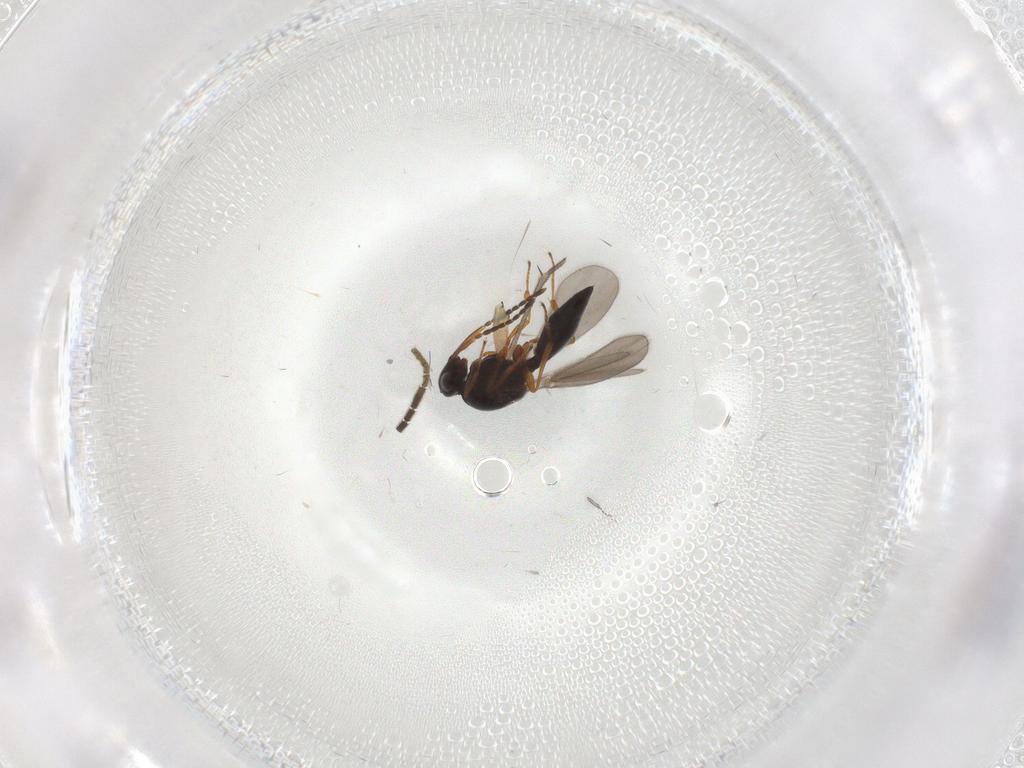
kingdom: Animalia
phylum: Arthropoda
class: Insecta
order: Diptera
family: Sciaridae
